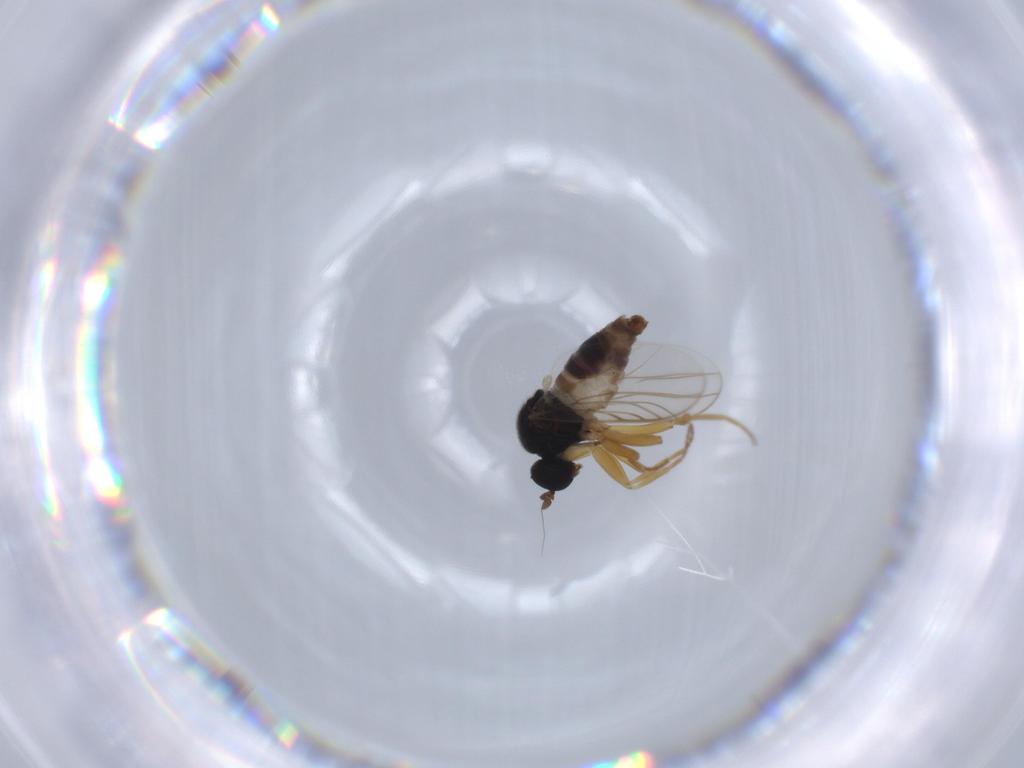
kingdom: Animalia
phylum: Arthropoda
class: Insecta
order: Diptera
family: Hybotidae
